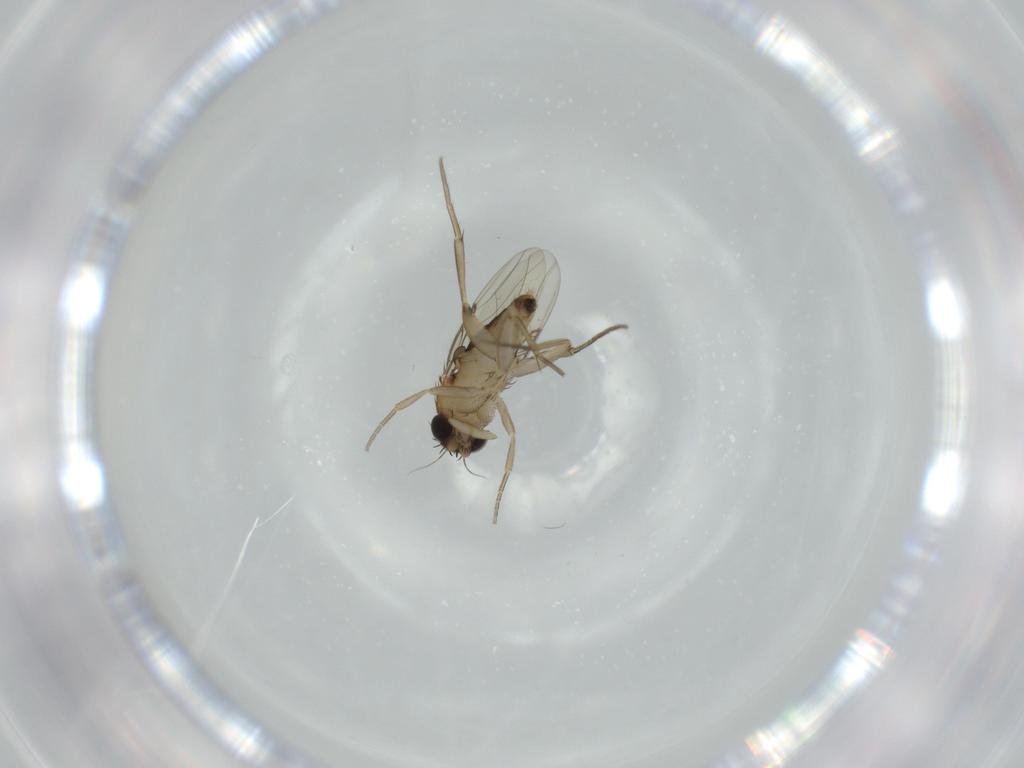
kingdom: Animalia
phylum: Arthropoda
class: Insecta
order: Diptera
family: Phoridae
